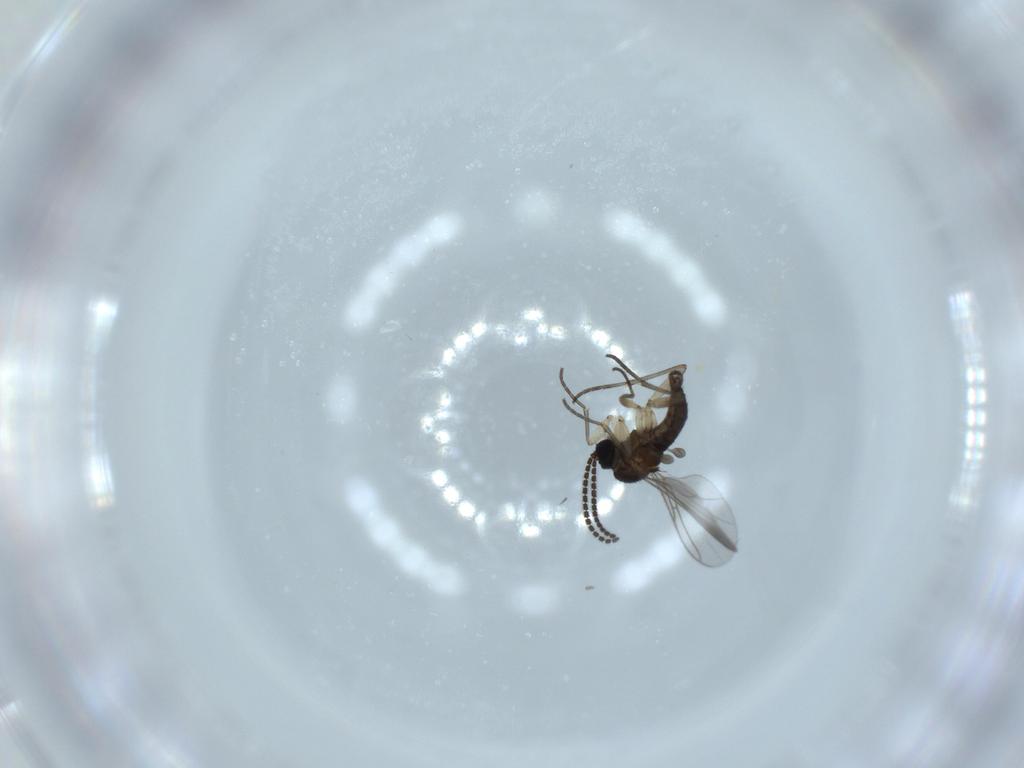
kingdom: Animalia
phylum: Arthropoda
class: Insecta
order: Diptera
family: Sciaridae
